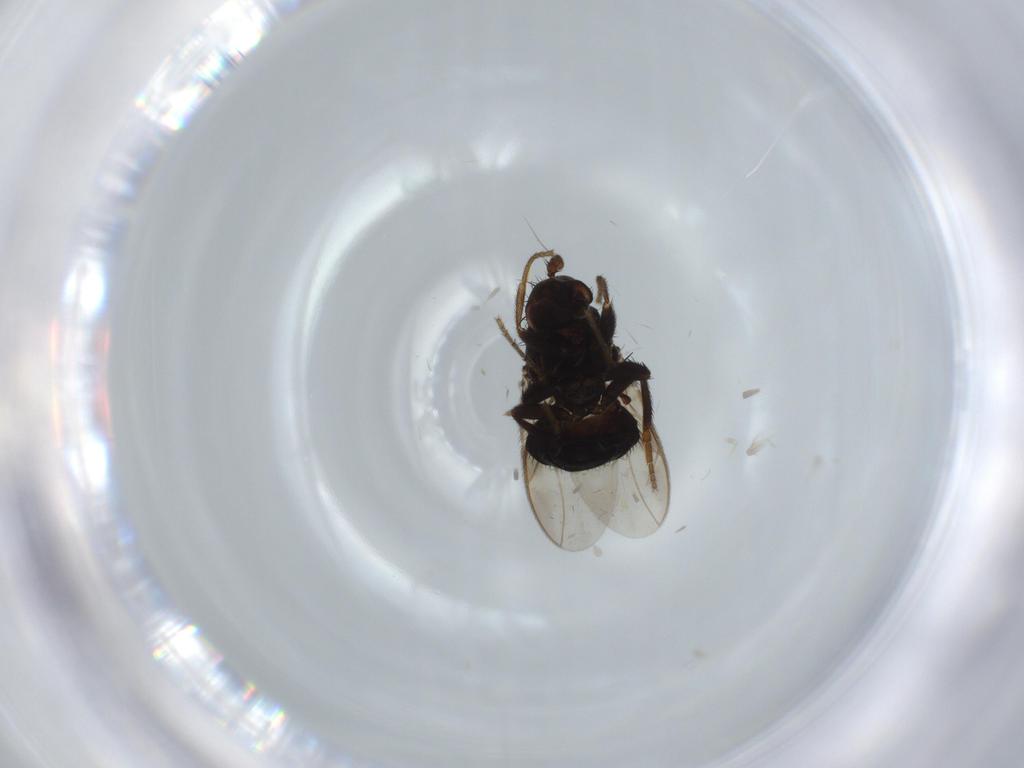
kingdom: Animalia
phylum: Arthropoda
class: Insecta
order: Diptera
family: Sphaeroceridae
